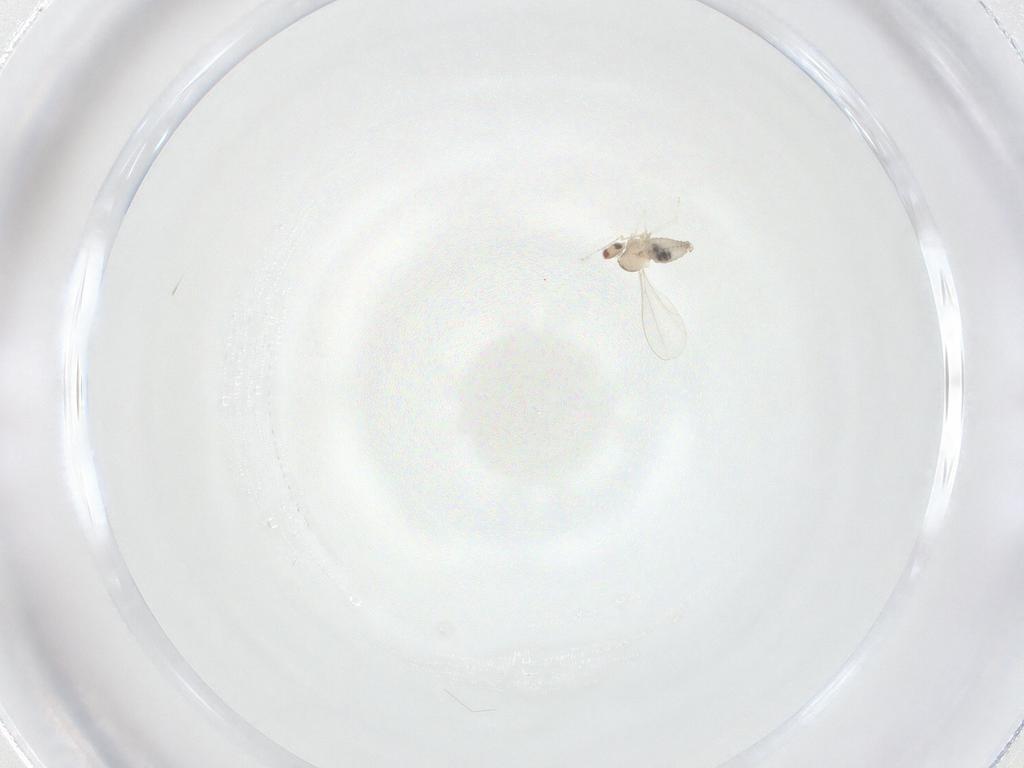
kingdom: Animalia
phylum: Arthropoda
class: Insecta
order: Diptera
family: Cecidomyiidae
